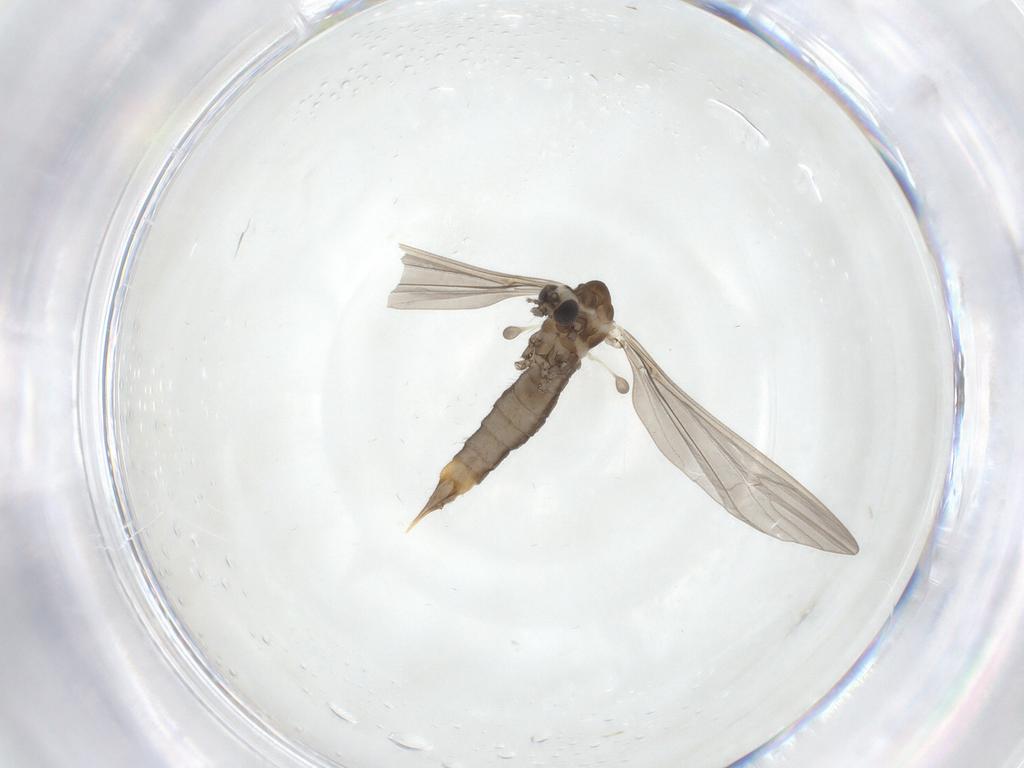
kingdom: Animalia
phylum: Arthropoda
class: Insecta
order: Diptera
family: Limoniidae
